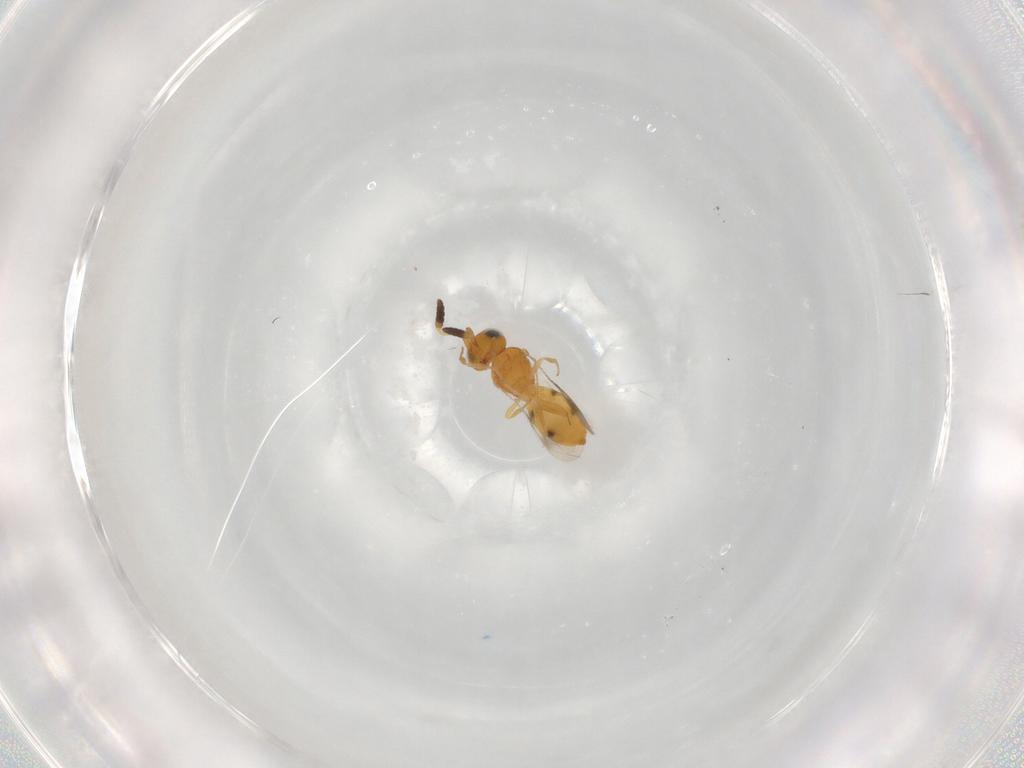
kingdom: Animalia
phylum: Arthropoda
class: Insecta
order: Hymenoptera
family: Scelionidae
